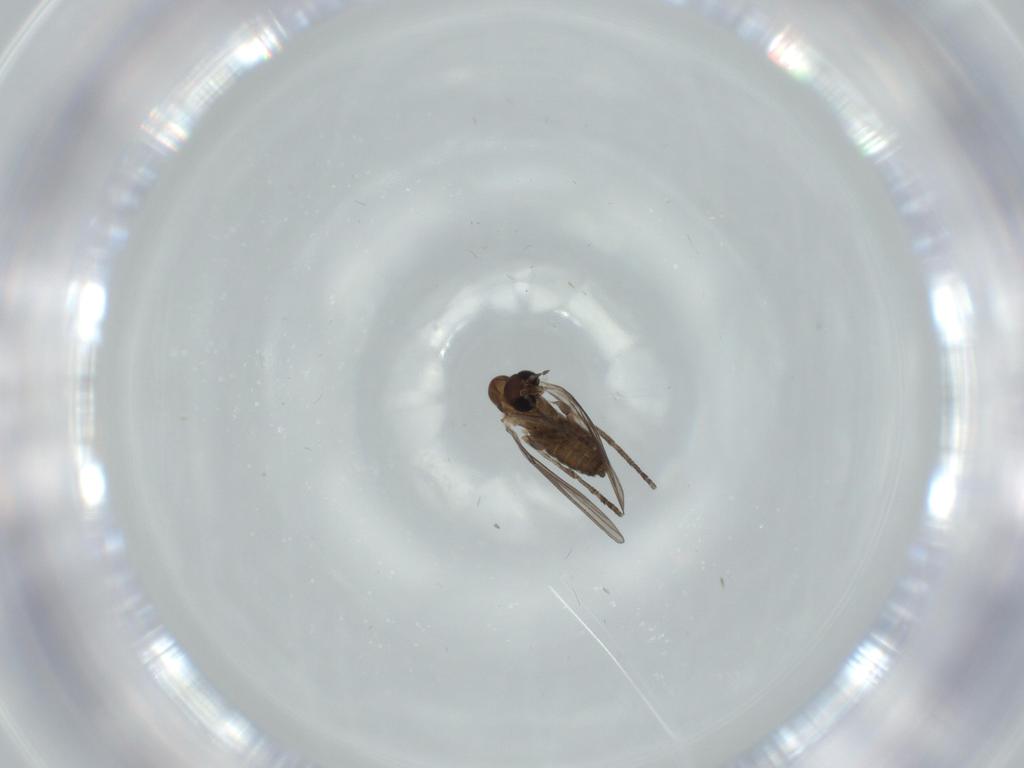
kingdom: Animalia
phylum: Arthropoda
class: Insecta
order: Diptera
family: Psychodidae
